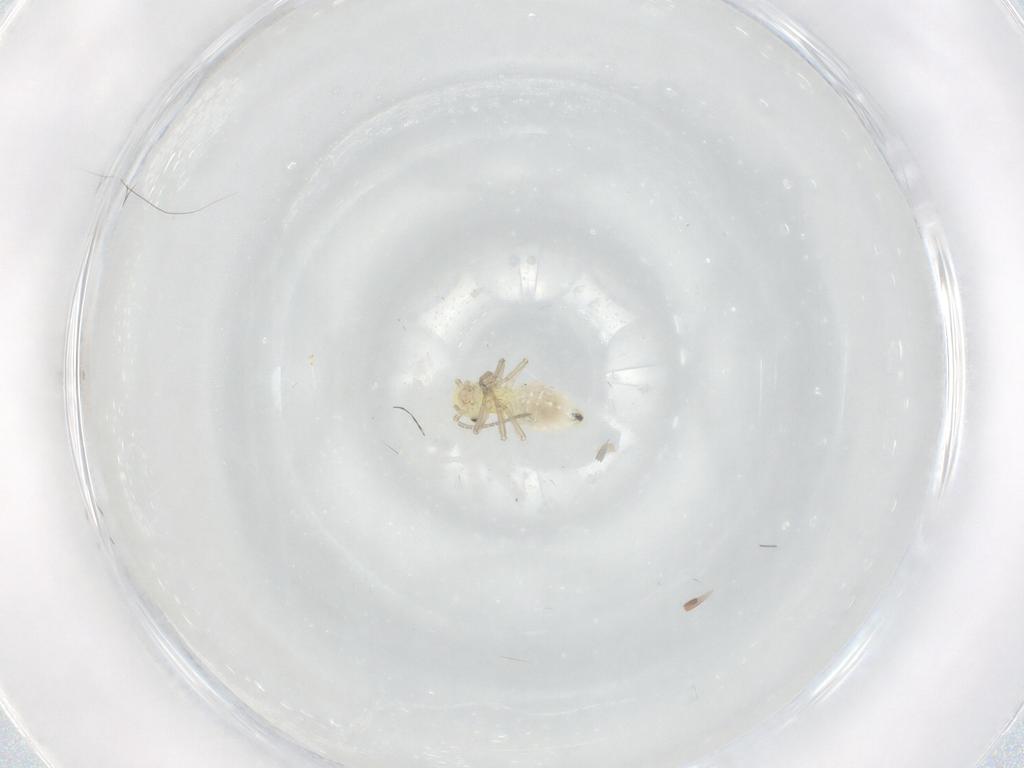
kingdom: Animalia
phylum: Arthropoda
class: Insecta
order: Psocodea
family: Caeciliusidae
